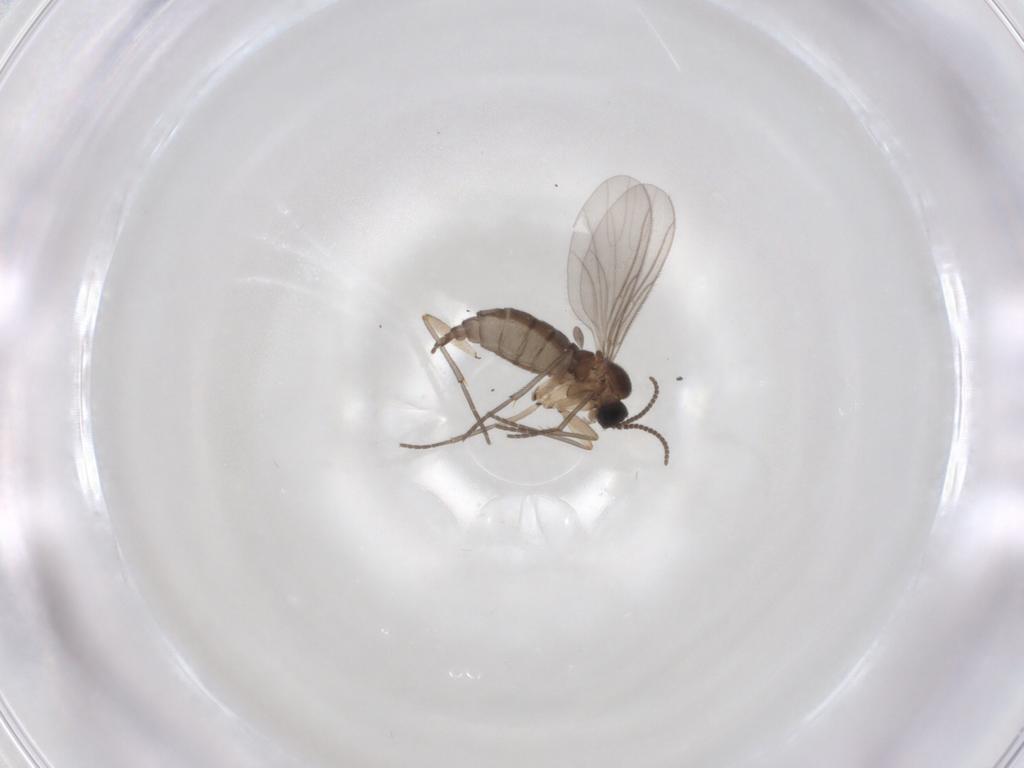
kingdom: Animalia
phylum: Arthropoda
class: Insecta
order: Diptera
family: Sciaridae
